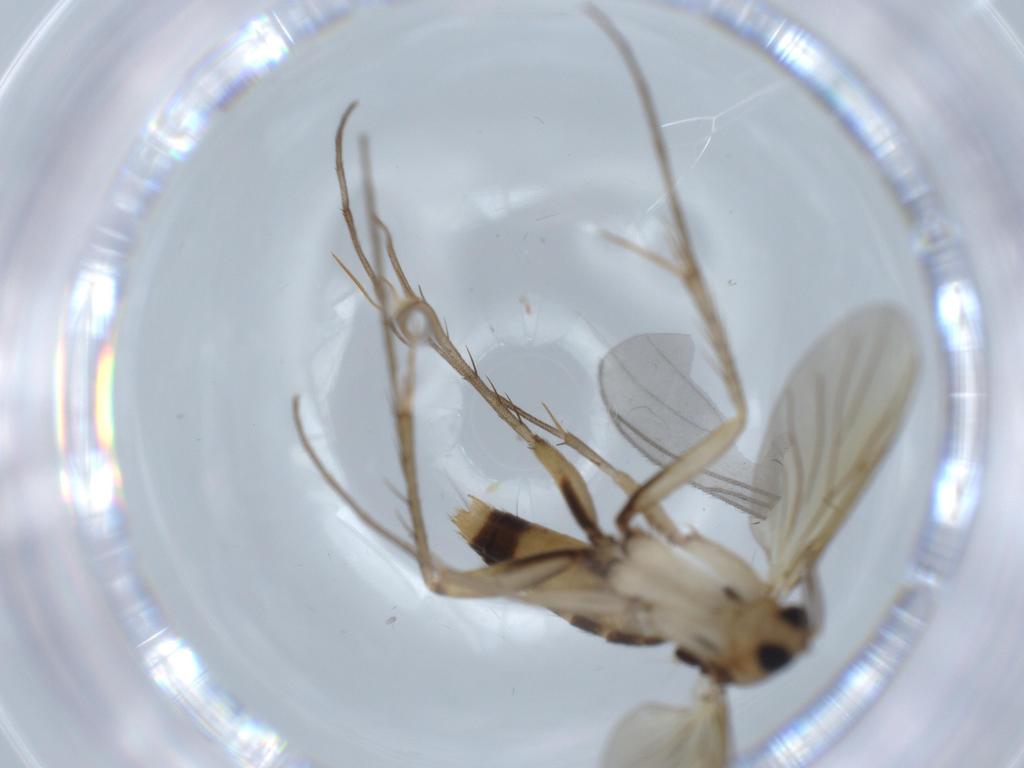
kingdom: Animalia
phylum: Arthropoda
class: Insecta
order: Diptera
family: Cecidomyiidae
